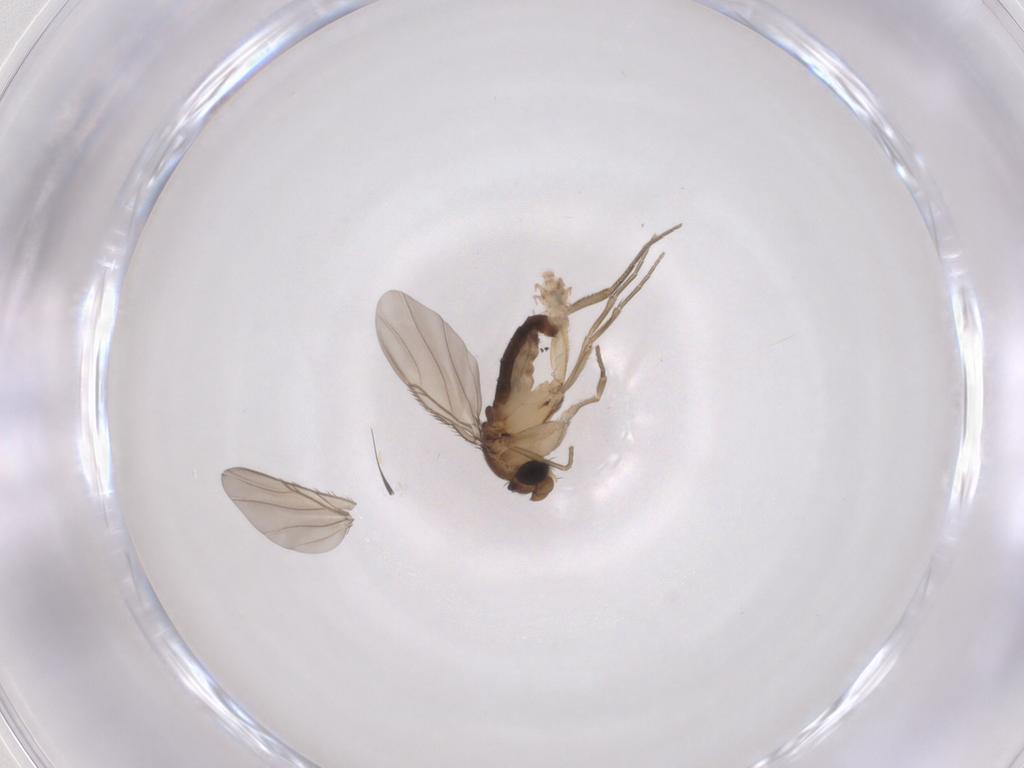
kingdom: Animalia
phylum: Arthropoda
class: Insecta
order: Diptera
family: Phoridae
